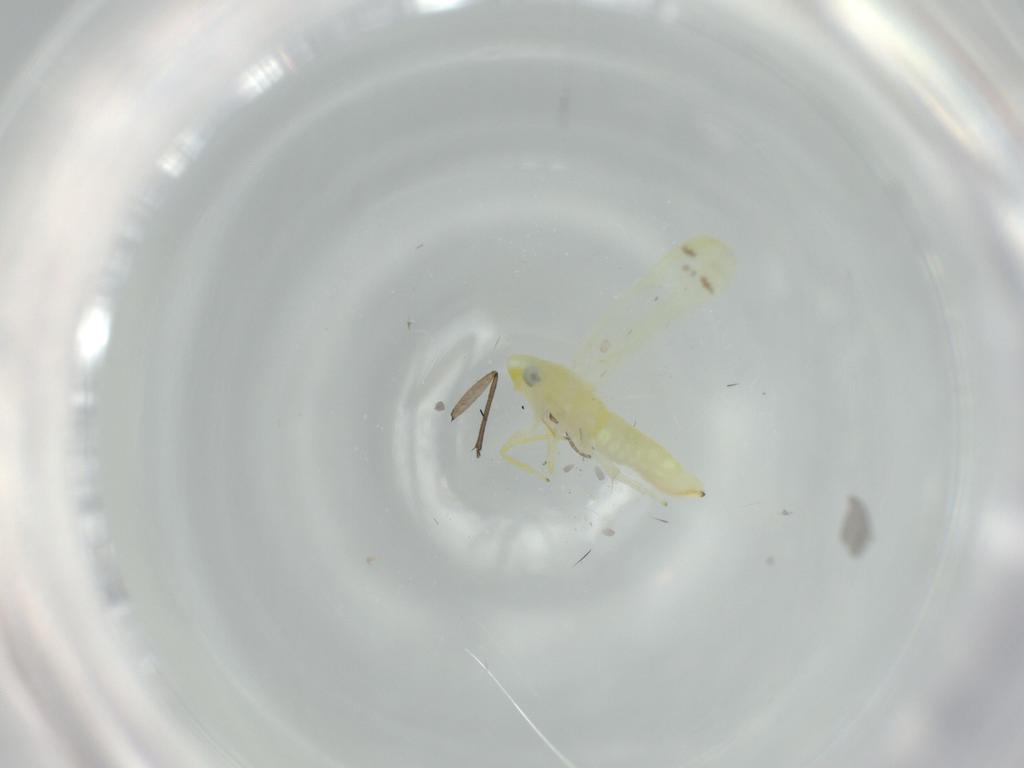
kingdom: Animalia
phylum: Arthropoda
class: Insecta
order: Hemiptera
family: Cicadellidae
